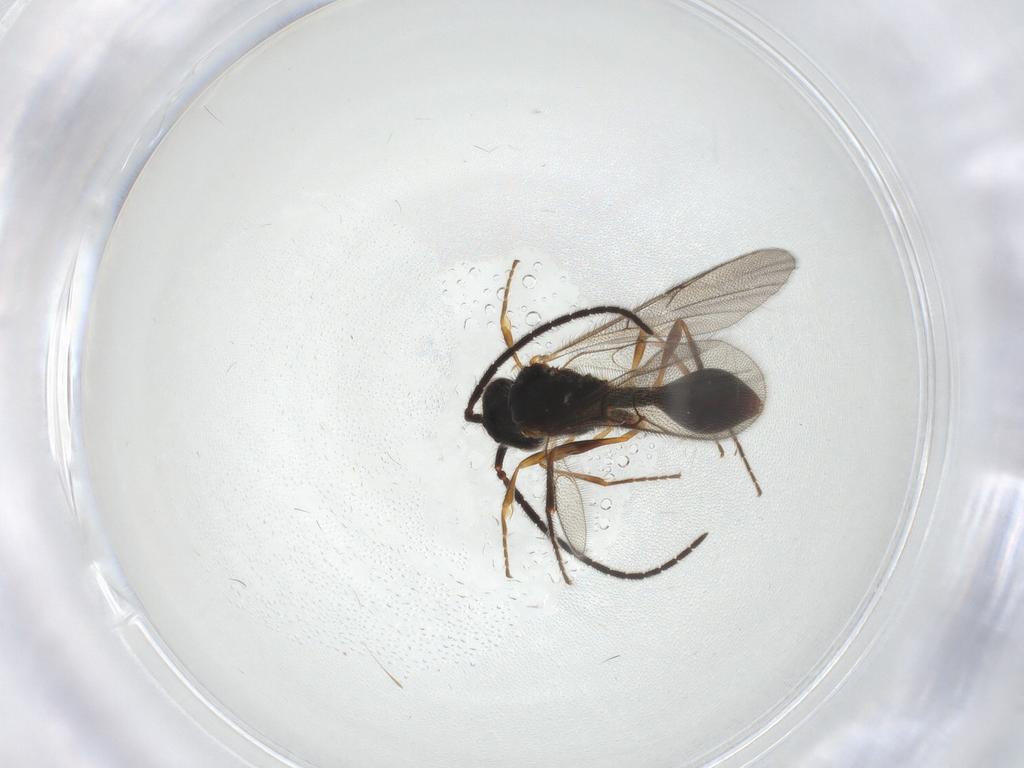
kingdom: Animalia
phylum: Arthropoda
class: Insecta
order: Hymenoptera
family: Diapriidae
